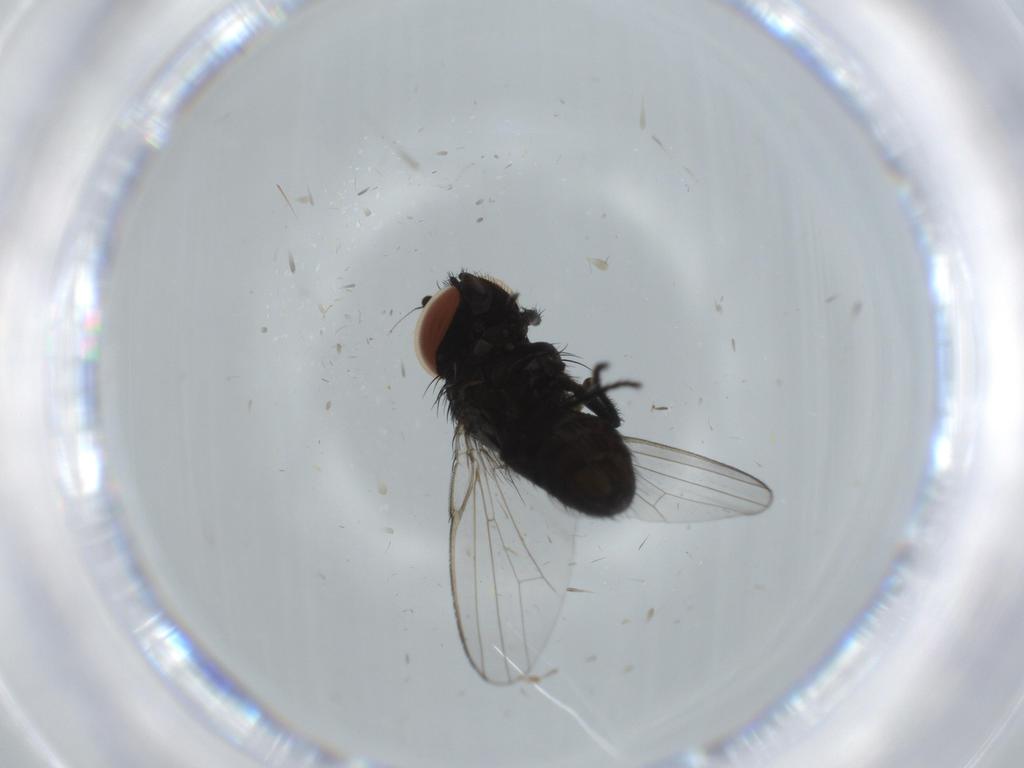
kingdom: Animalia
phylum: Arthropoda
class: Insecta
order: Diptera
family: Milichiidae
